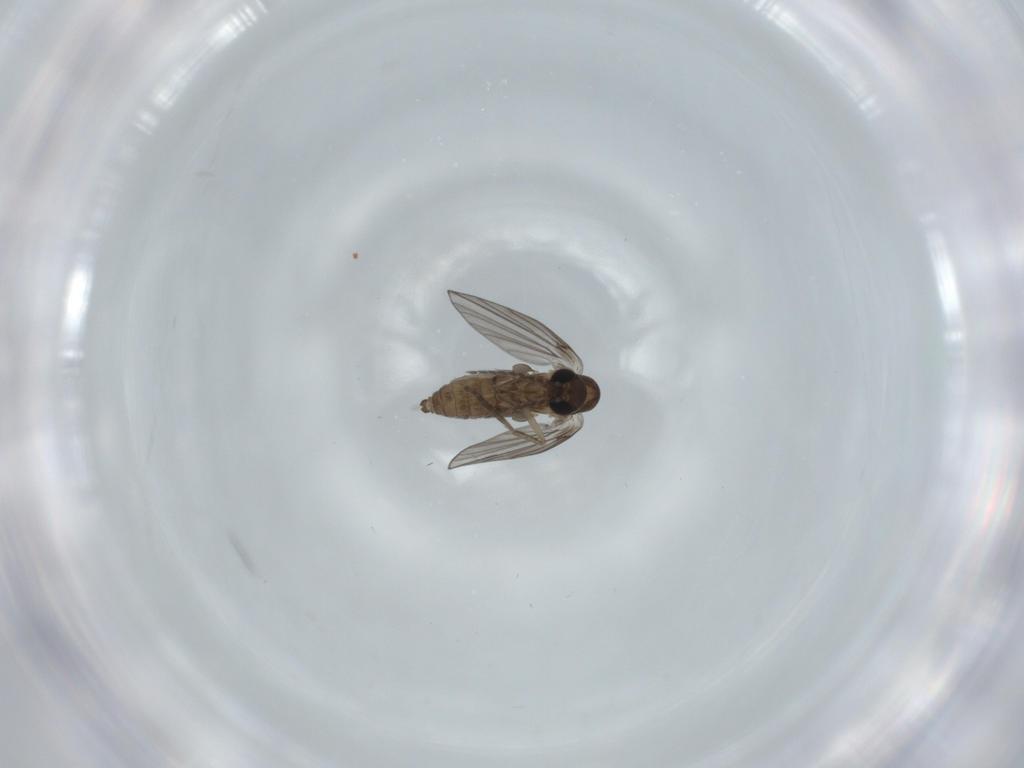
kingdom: Animalia
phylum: Arthropoda
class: Insecta
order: Diptera
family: Psychodidae
